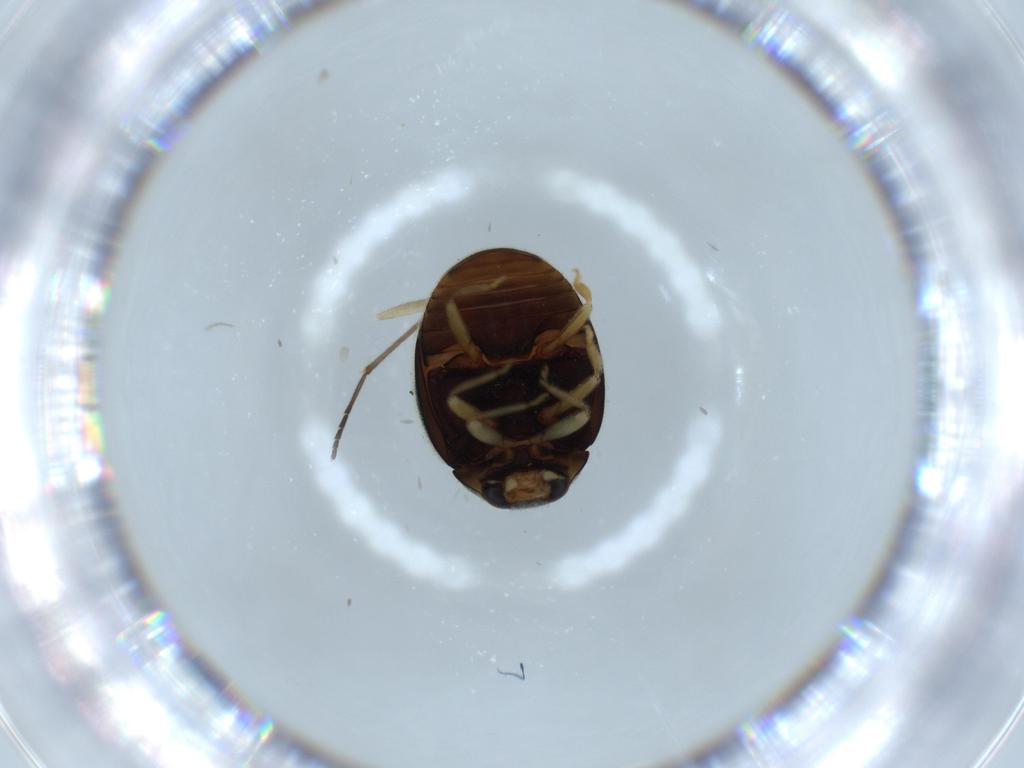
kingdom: Animalia
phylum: Arthropoda
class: Insecta
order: Coleoptera
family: Coccinellidae
